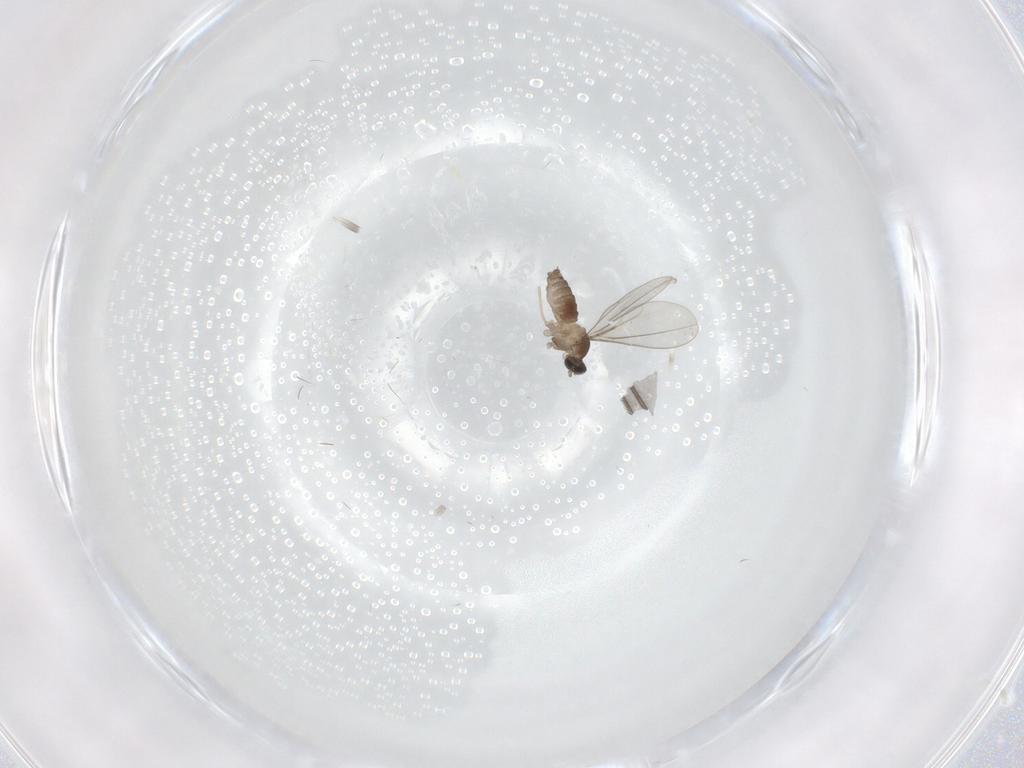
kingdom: Animalia
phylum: Arthropoda
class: Insecta
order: Diptera
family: Cecidomyiidae
